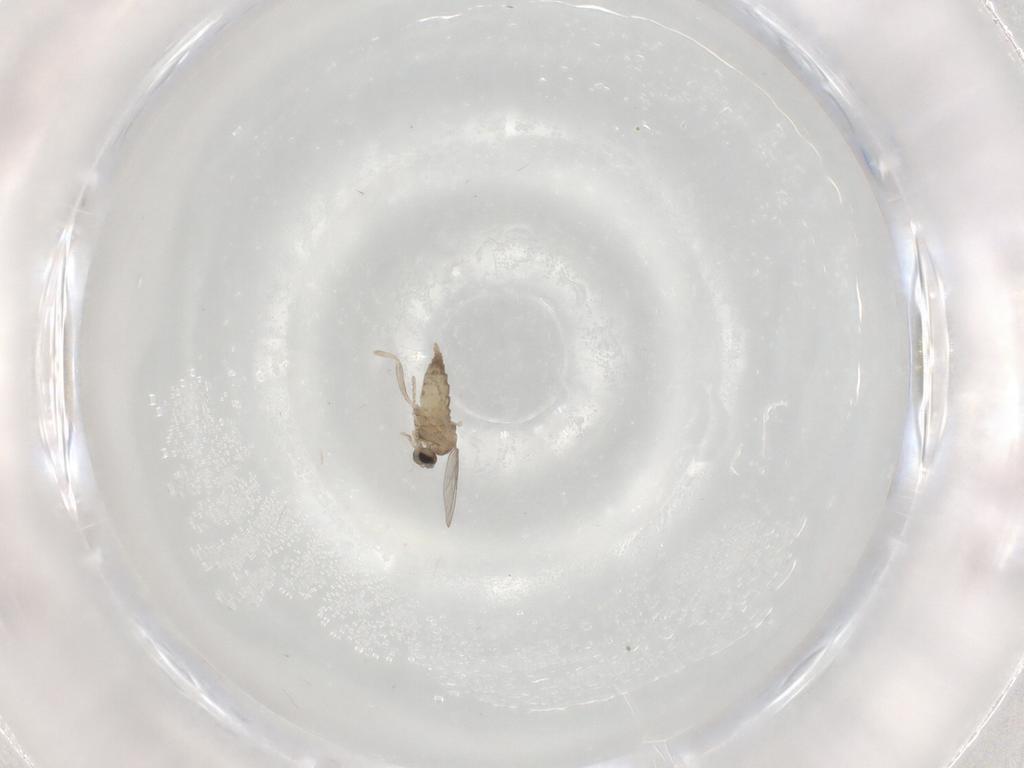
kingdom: Animalia
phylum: Arthropoda
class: Insecta
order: Diptera
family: Cecidomyiidae
